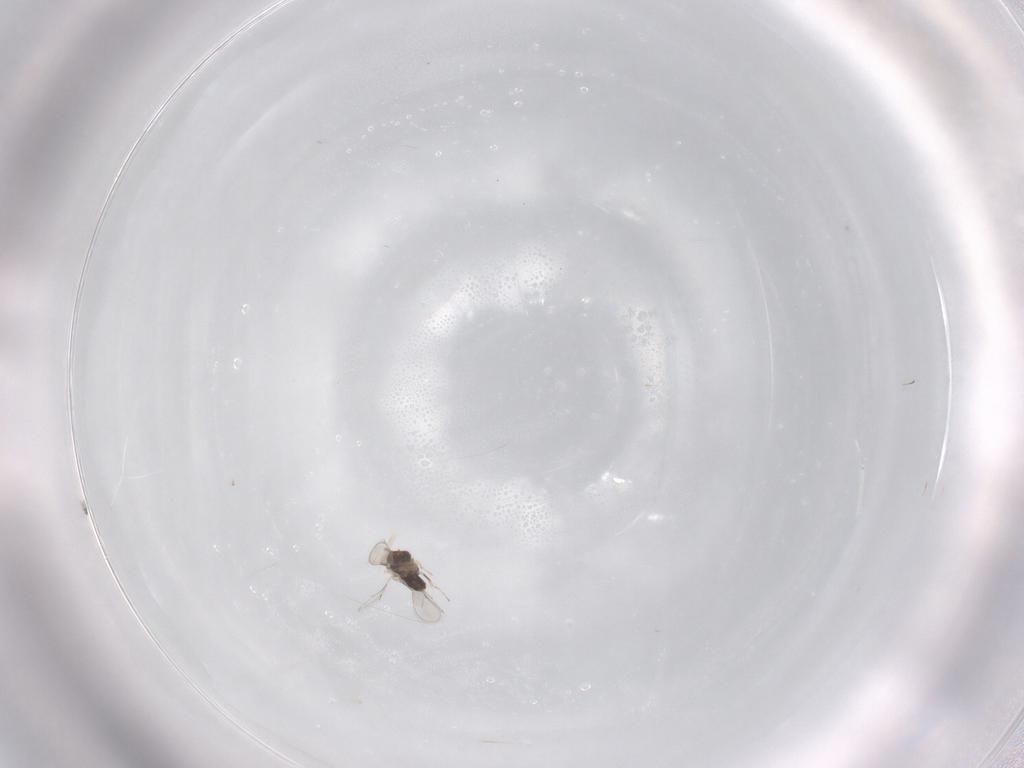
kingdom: Animalia
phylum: Arthropoda
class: Insecta
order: Hymenoptera
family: Aphelinidae
